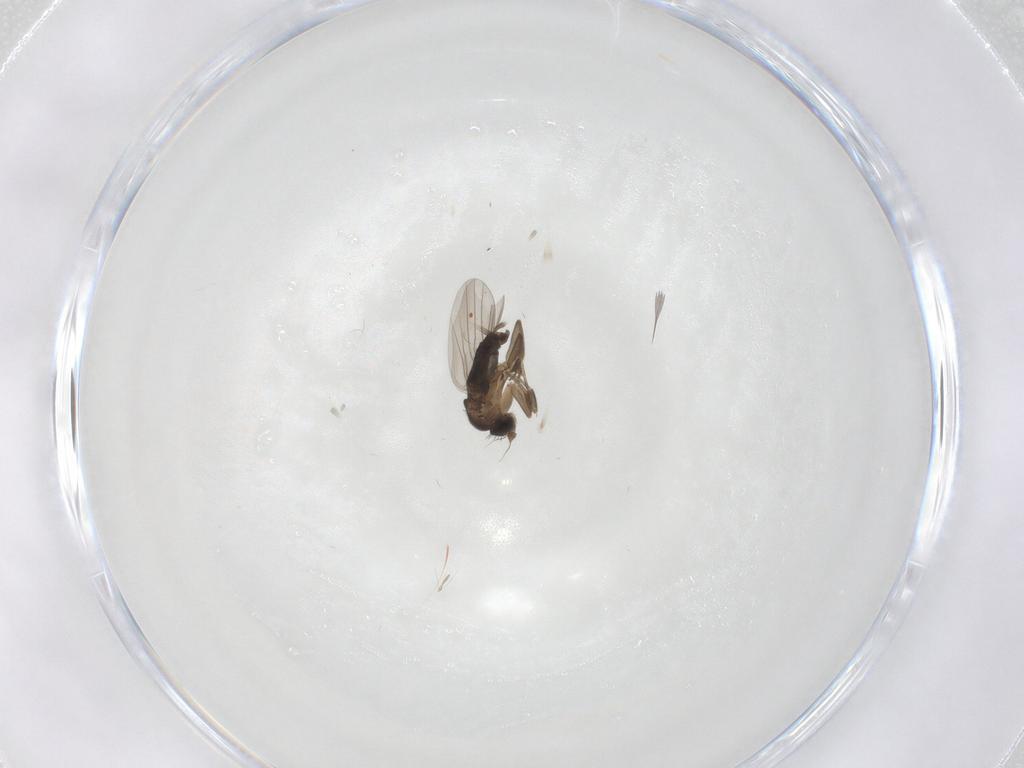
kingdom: Animalia
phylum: Arthropoda
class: Insecta
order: Diptera
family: Phoridae
